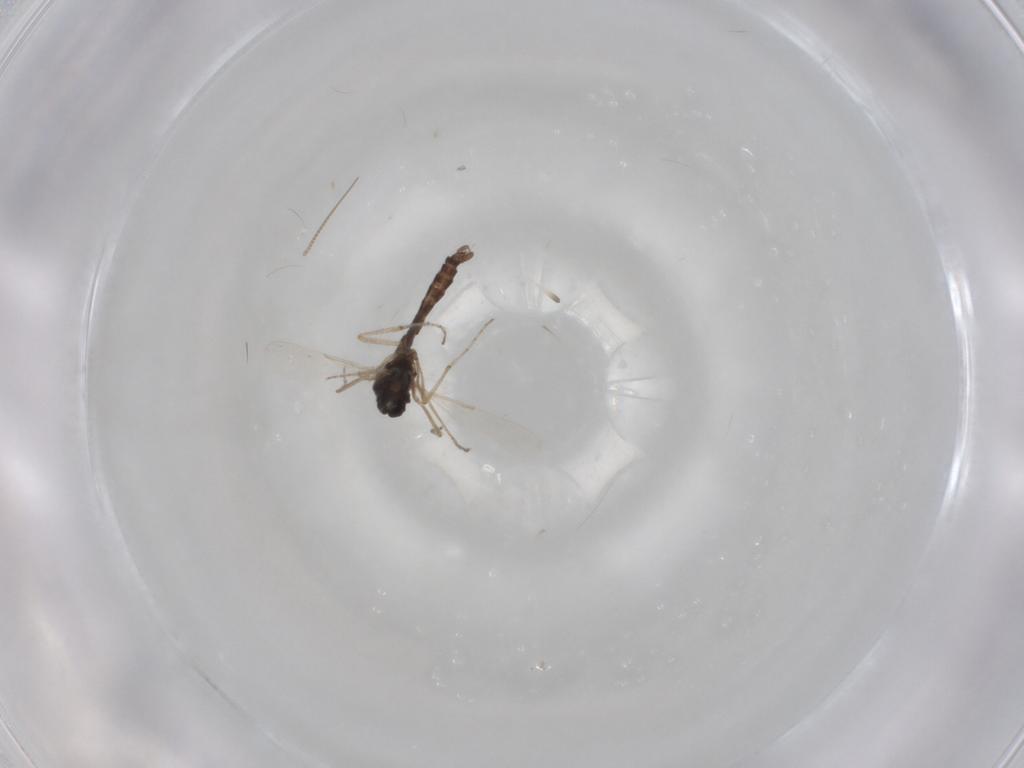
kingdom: Animalia
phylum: Arthropoda
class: Insecta
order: Diptera
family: Ceratopogonidae
